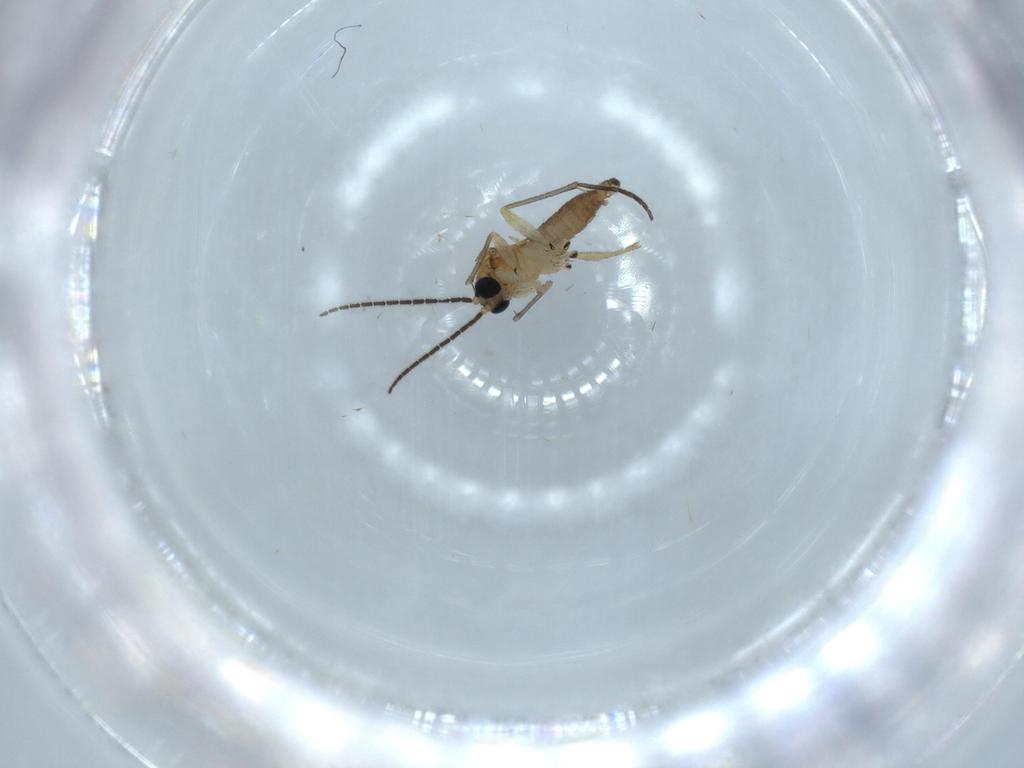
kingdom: Animalia
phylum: Arthropoda
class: Insecta
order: Diptera
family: Sciaridae
